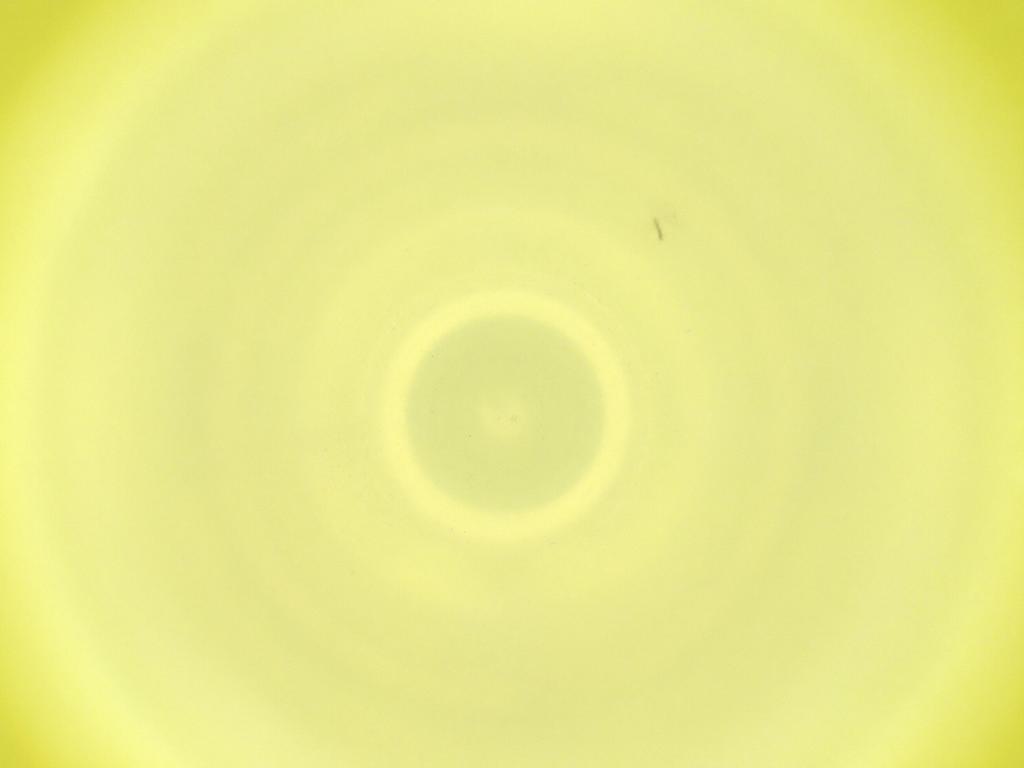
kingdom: Animalia
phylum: Arthropoda
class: Insecta
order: Diptera
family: Cecidomyiidae
